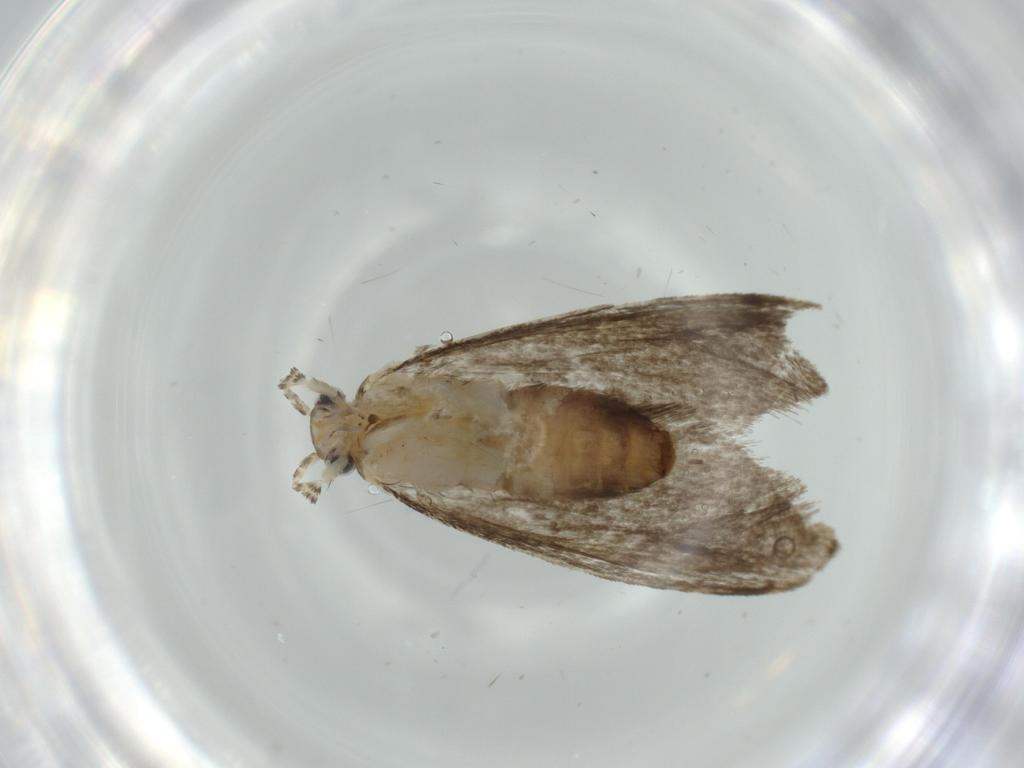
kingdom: Animalia
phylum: Arthropoda
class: Insecta
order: Lepidoptera
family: Tineidae
